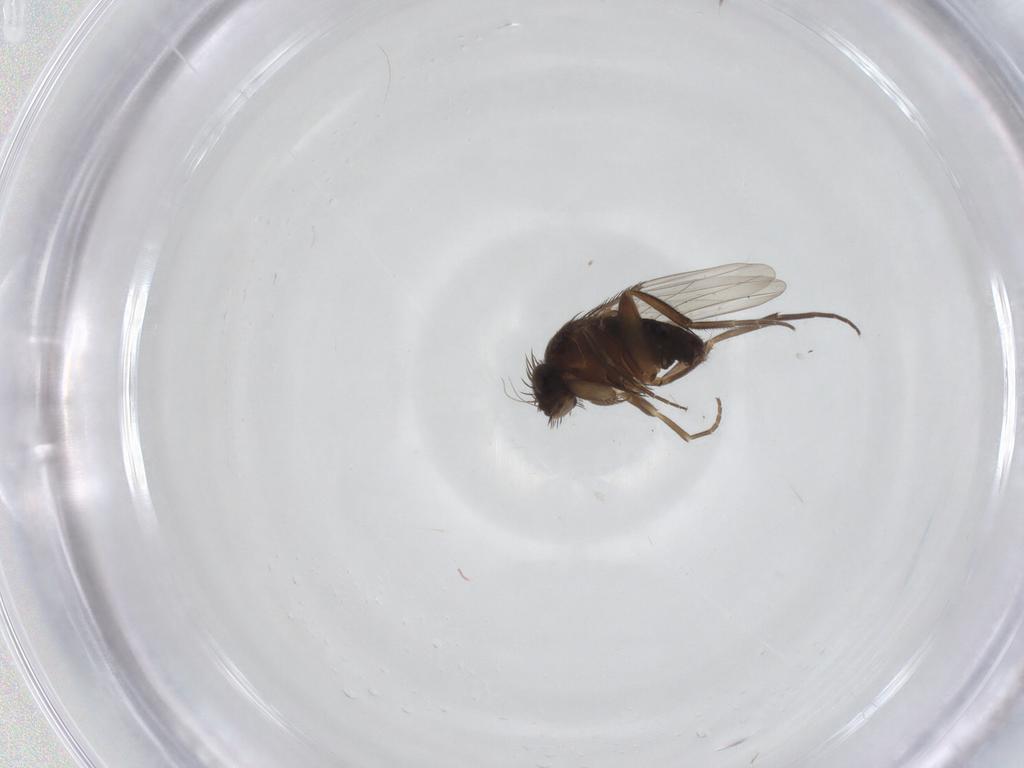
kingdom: Animalia
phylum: Arthropoda
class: Insecta
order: Diptera
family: Phoridae
